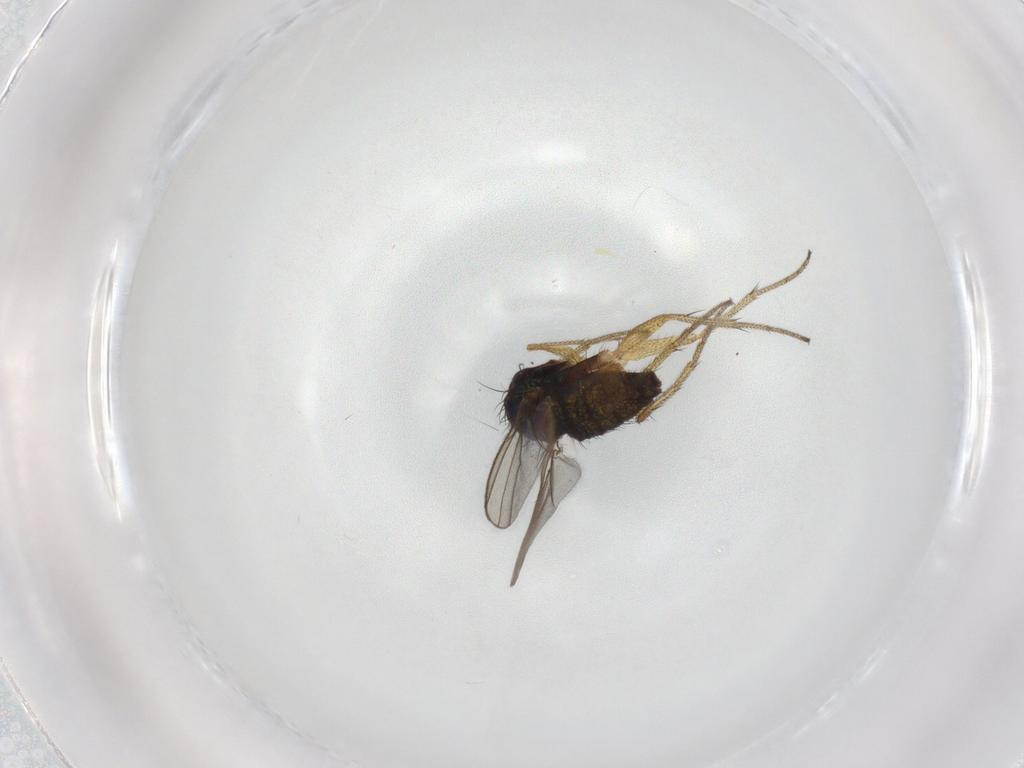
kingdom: Animalia
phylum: Arthropoda
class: Insecta
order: Diptera
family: Dolichopodidae
